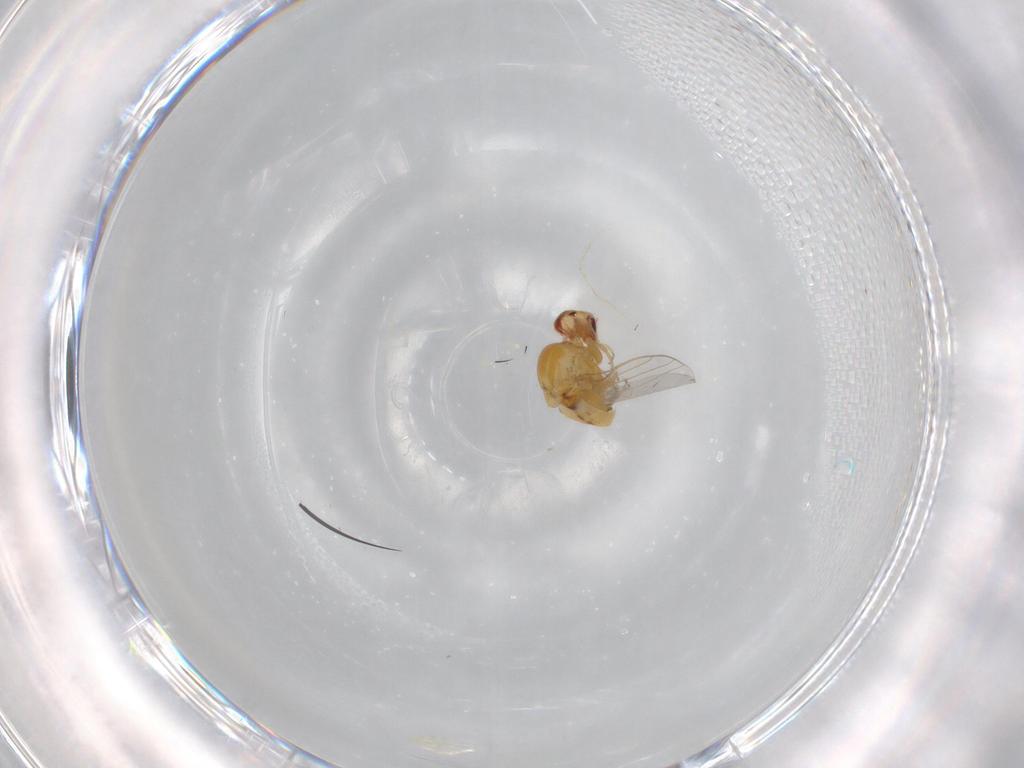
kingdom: Animalia
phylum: Arthropoda
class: Insecta
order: Diptera
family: Chloropidae
